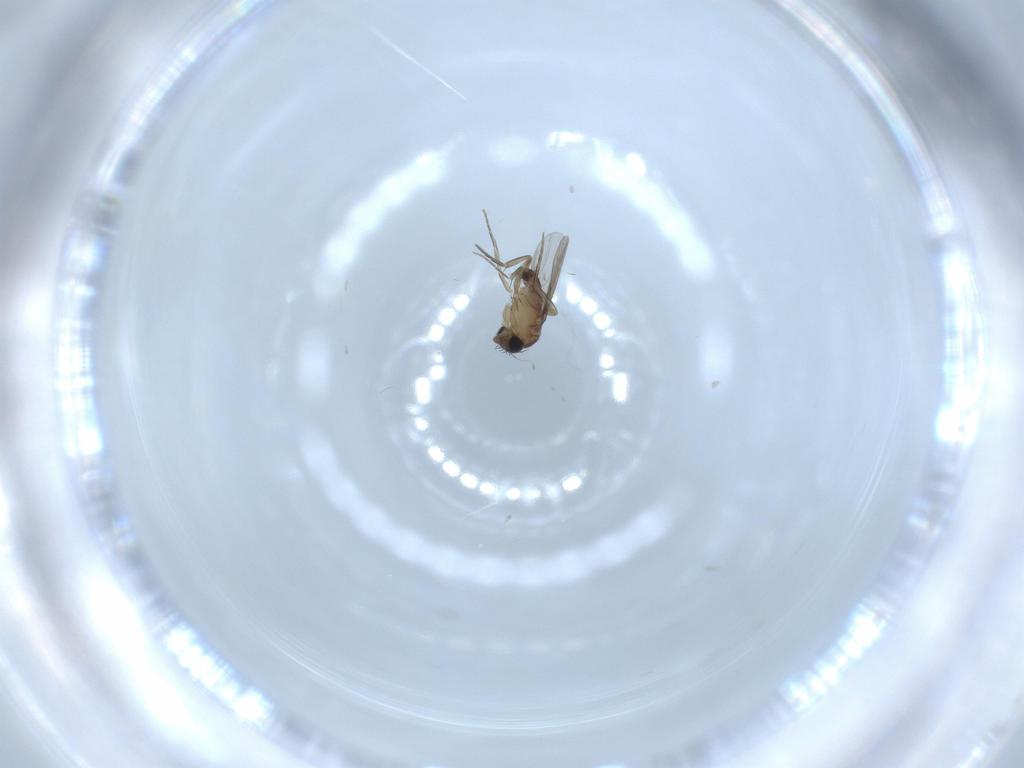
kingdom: Animalia
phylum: Arthropoda
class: Insecta
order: Diptera
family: Phoridae
